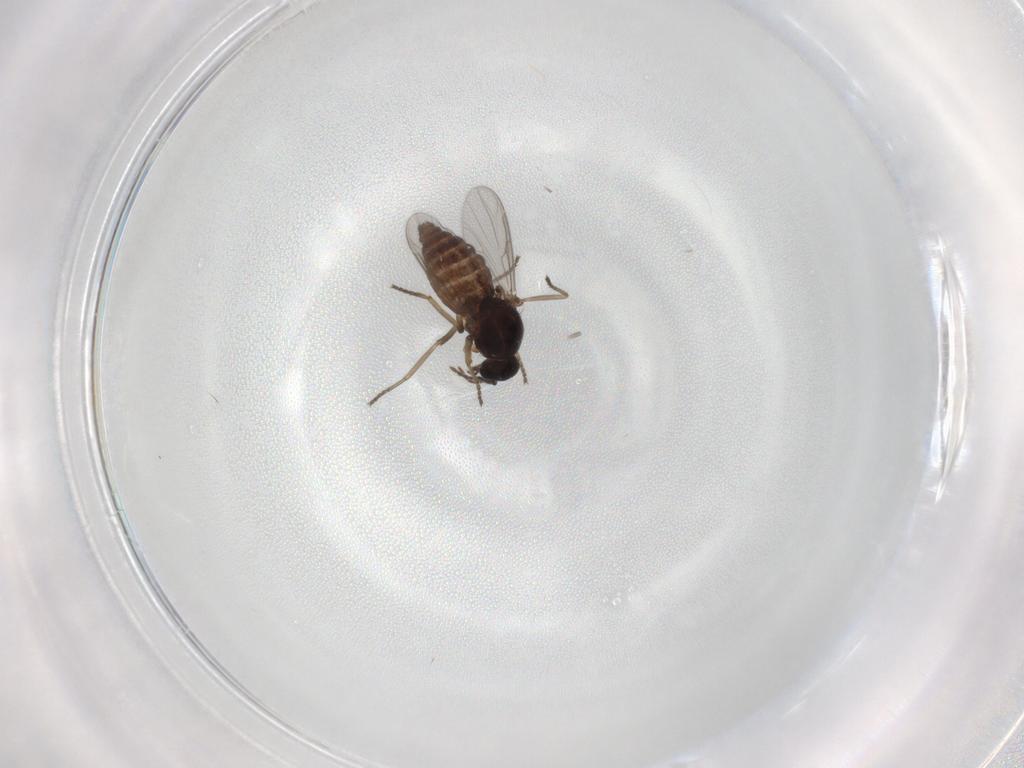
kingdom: Animalia
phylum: Arthropoda
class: Insecta
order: Diptera
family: Ceratopogonidae
